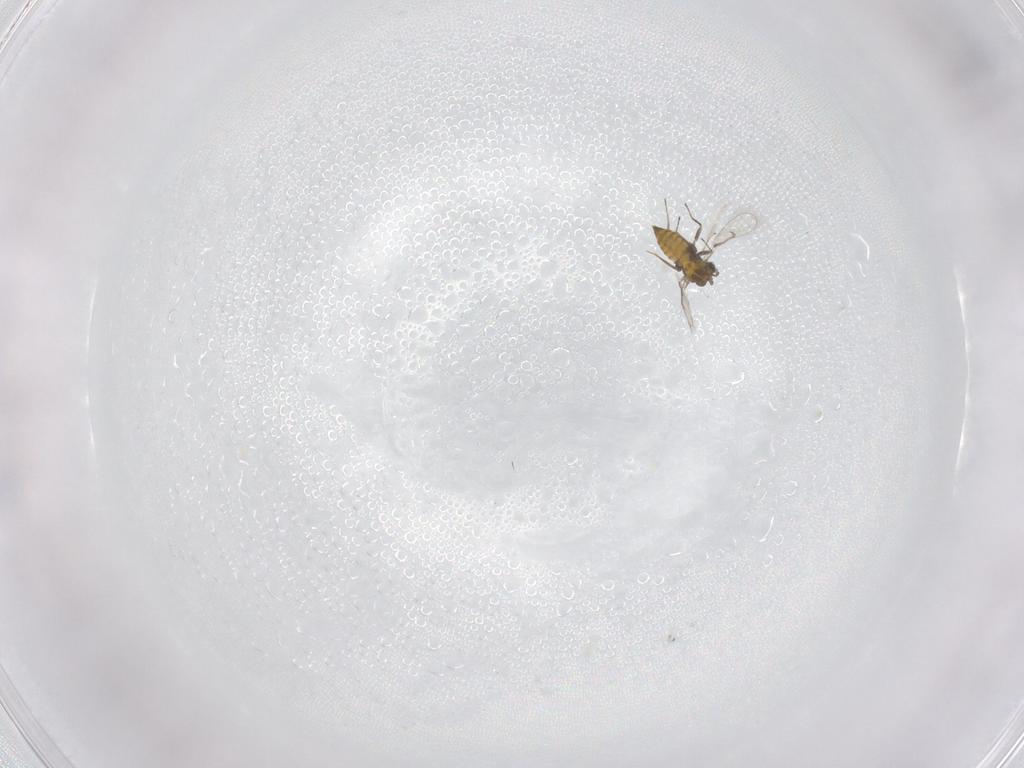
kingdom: Animalia
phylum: Arthropoda
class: Insecta
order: Hymenoptera
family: Trichogrammatidae
